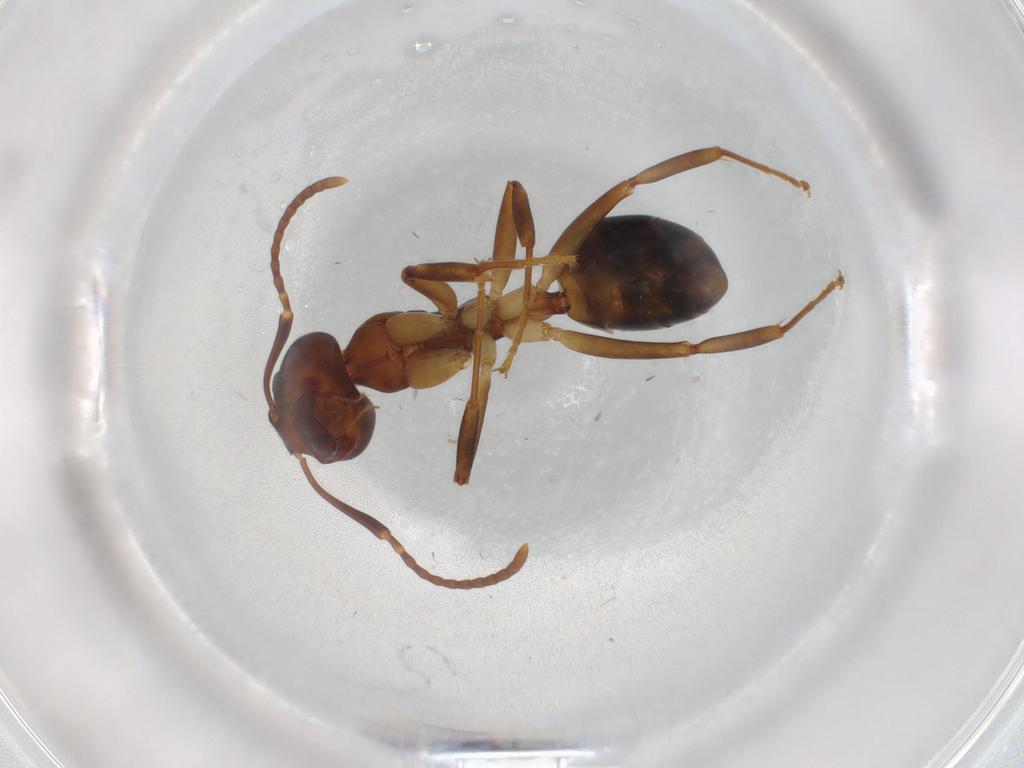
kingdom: Animalia
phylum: Arthropoda
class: Insecta
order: Hymenoptera
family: Formicidae
